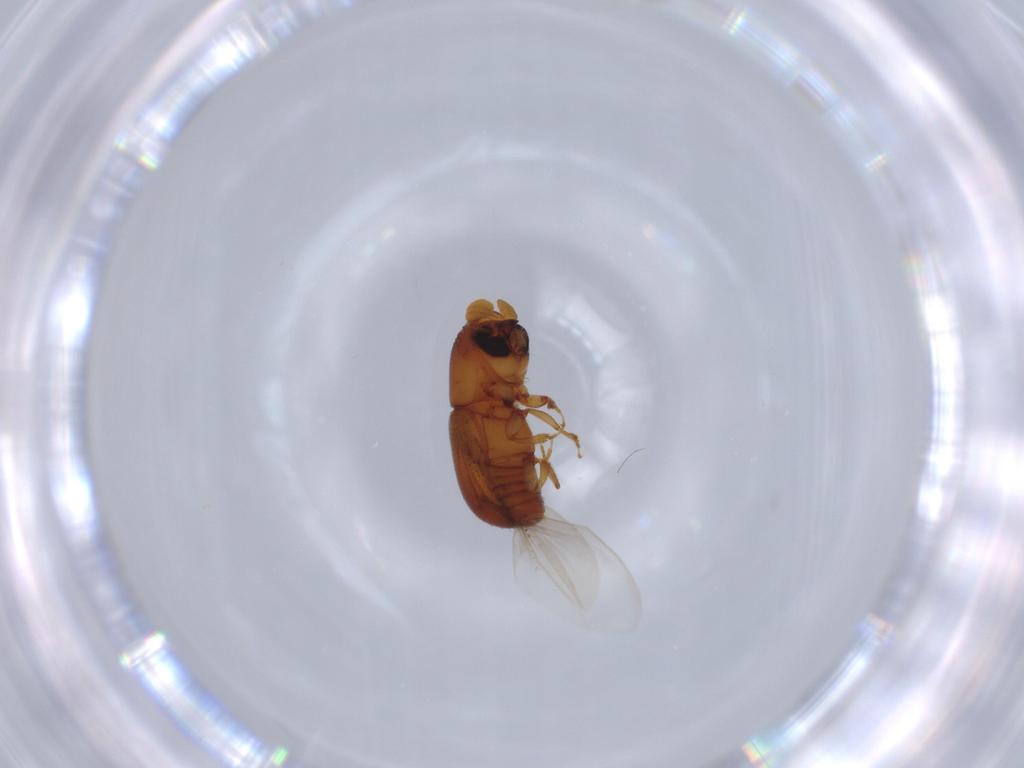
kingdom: Animalia
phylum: Arthropoda
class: Insecta
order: Coleoptera
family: Curculionidae
